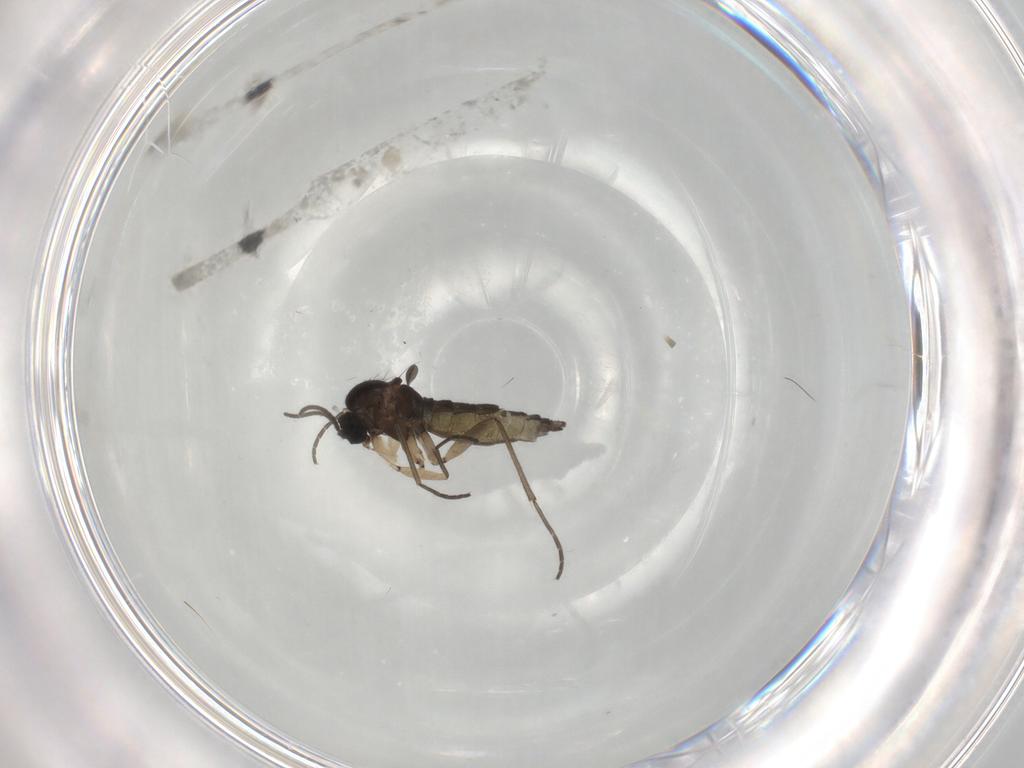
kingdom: Animalia
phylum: Arthropoda
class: Insecta
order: Diptera
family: Sciaridae
